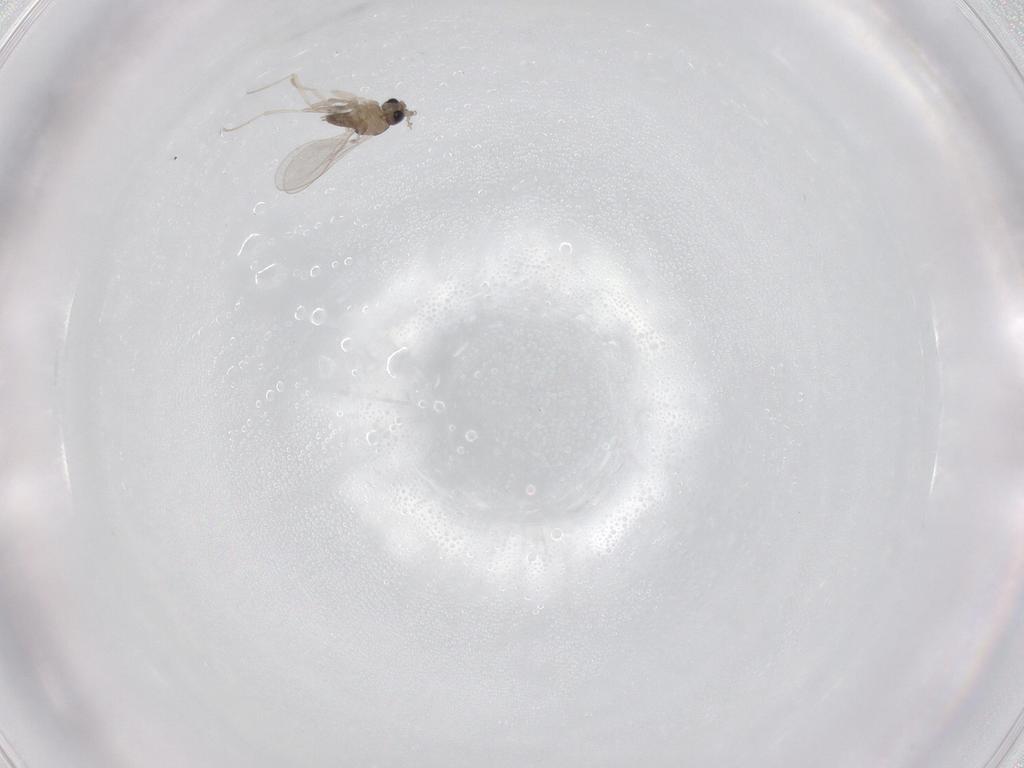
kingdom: Animalia
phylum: Arthropoda
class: Insecta
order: Diptera
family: Cecidomyiidae
